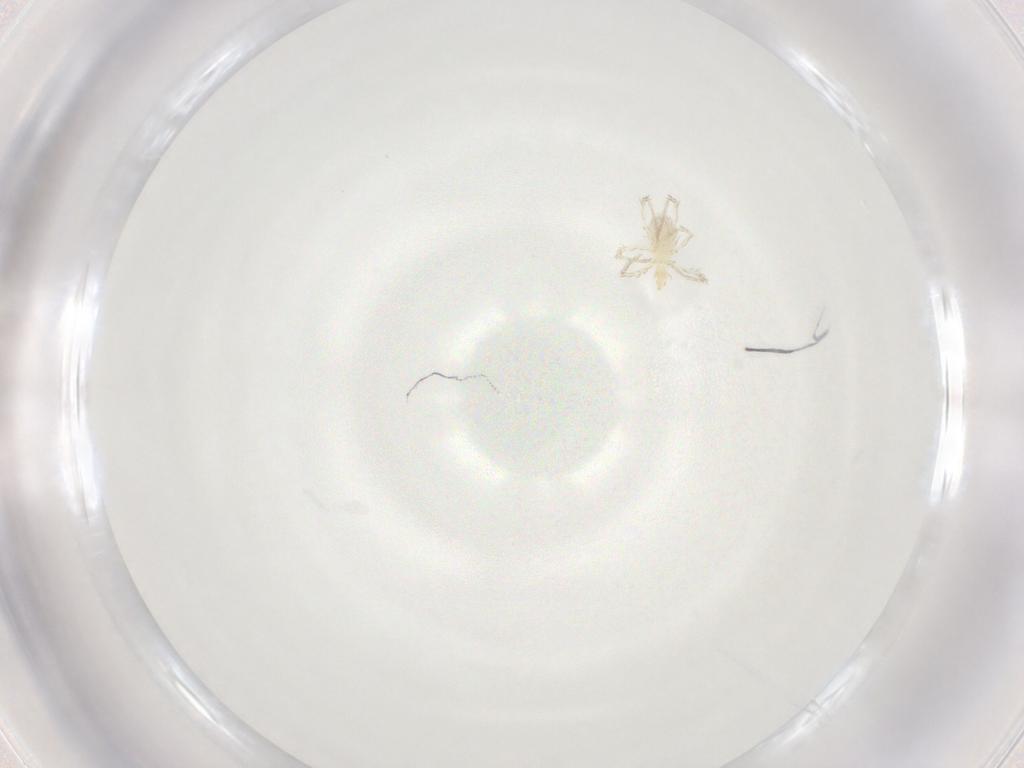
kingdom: Animalia
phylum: Arthropoda
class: Arachnida
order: Trombidiformes
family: Erythraeidae
